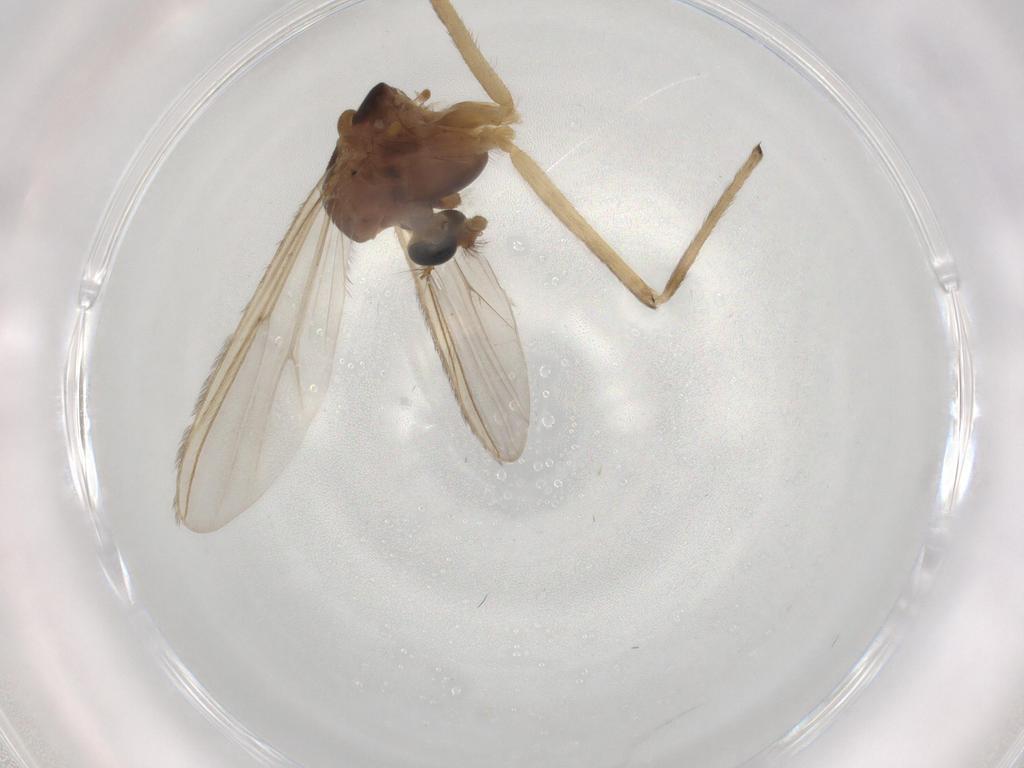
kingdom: Animalia
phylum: Arthropoda
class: Insecta
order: Diptera
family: Chironomidae
